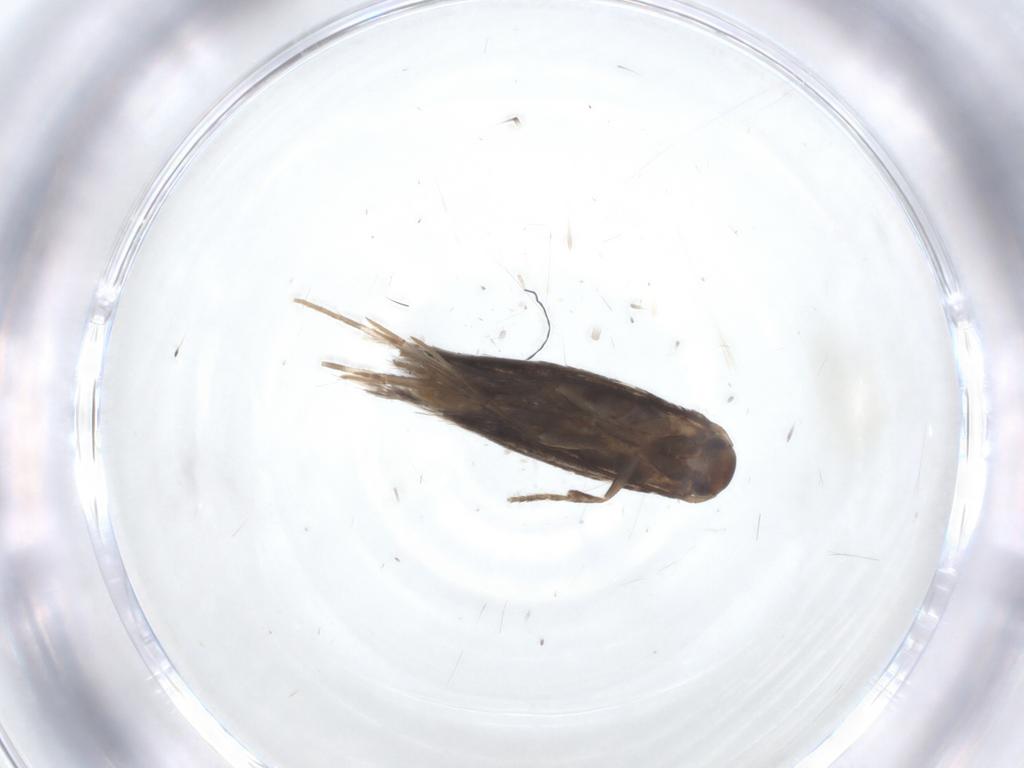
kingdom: Animalia
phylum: Arthropoda
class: Insecta
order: Lepidoptera
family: Elachistidae
